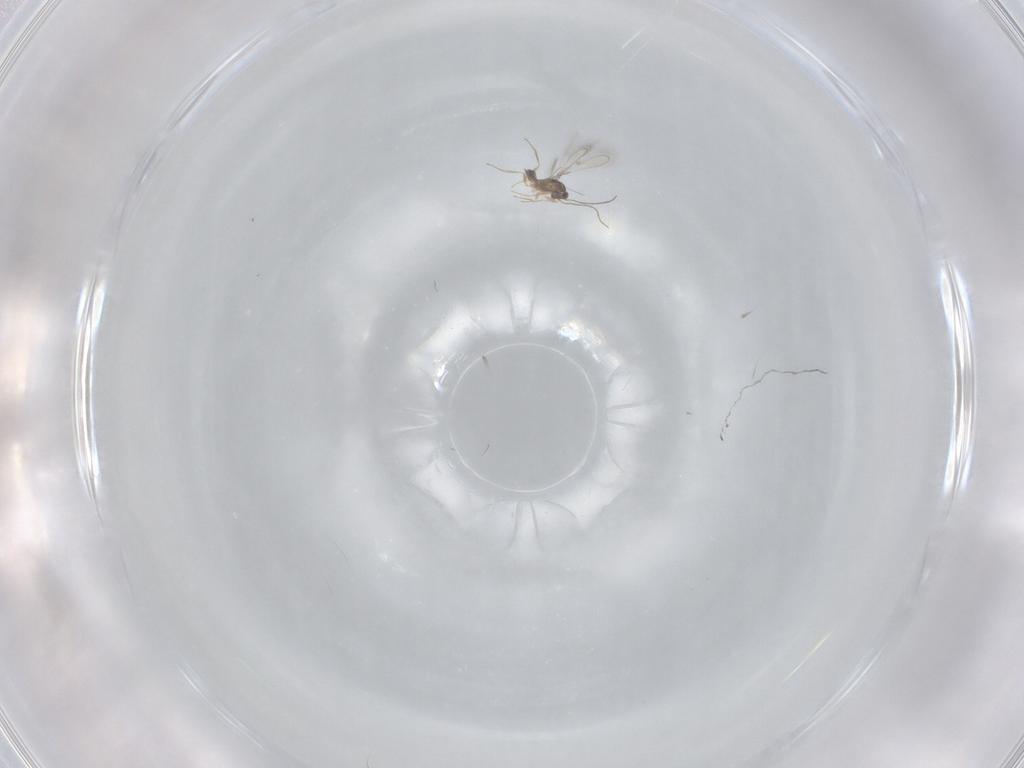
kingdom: Animalia
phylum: Arthropoda
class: Insecta
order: Hymenoptera
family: Mymaridae
